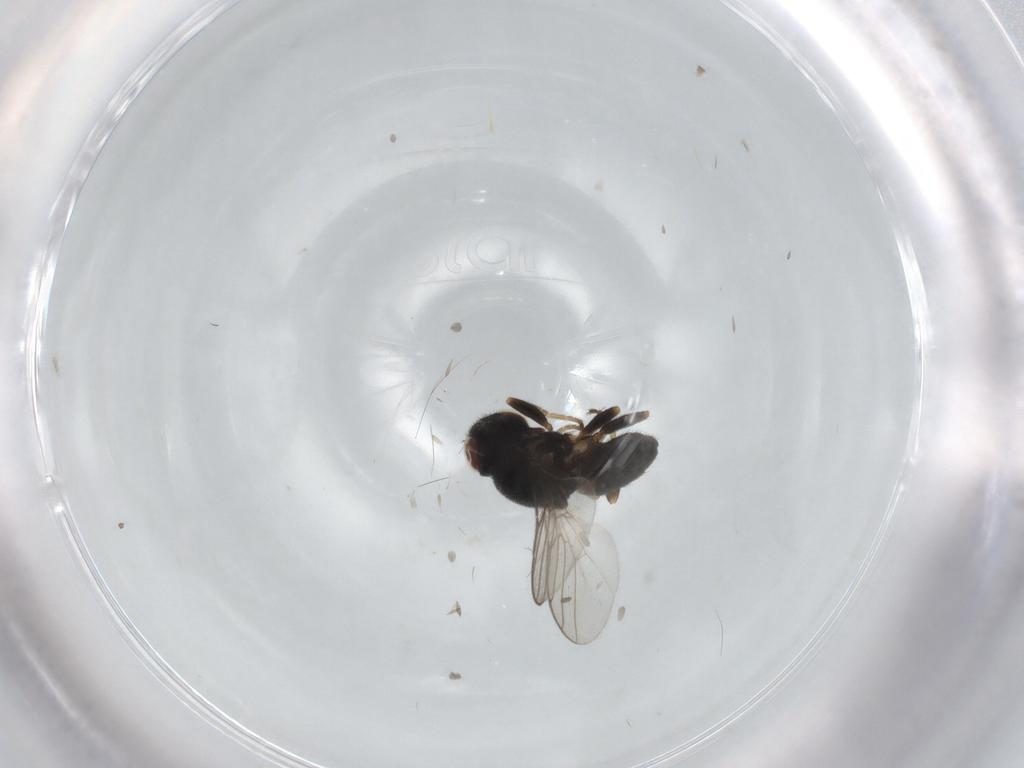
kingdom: Animalia
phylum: Arthropoda
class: Insecta
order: Diptera
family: Chloropidae
